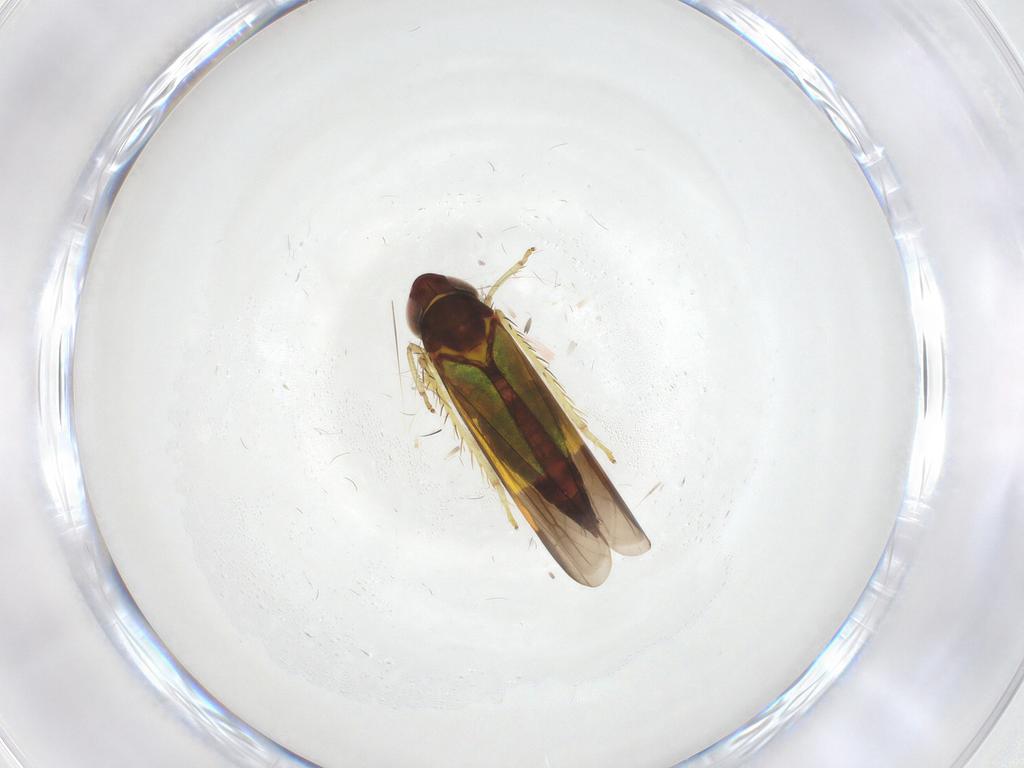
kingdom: Animalia
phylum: Arthropoda
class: Insecta
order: Hemiptera
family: Cicadellidae
